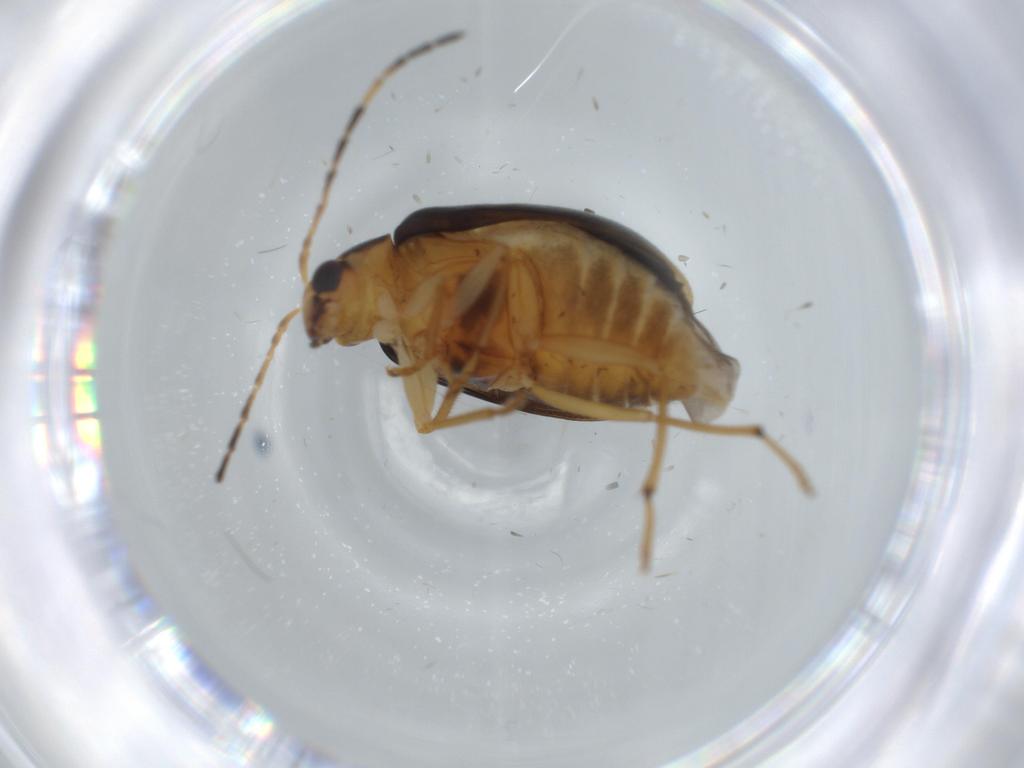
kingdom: Animalia
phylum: Arthropoda
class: Insecta
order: Coleoptera
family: Chrysomelidae
